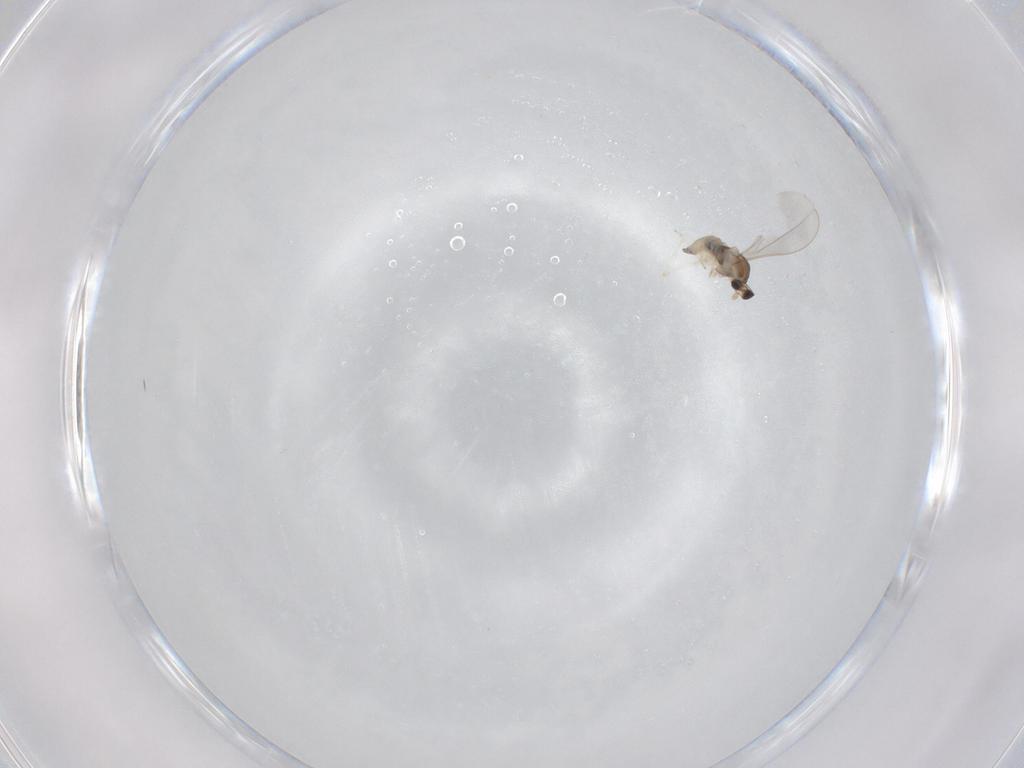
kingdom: Animalia
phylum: Arthropoda
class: Insecta
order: Diptera
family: Cecidomyiidae
